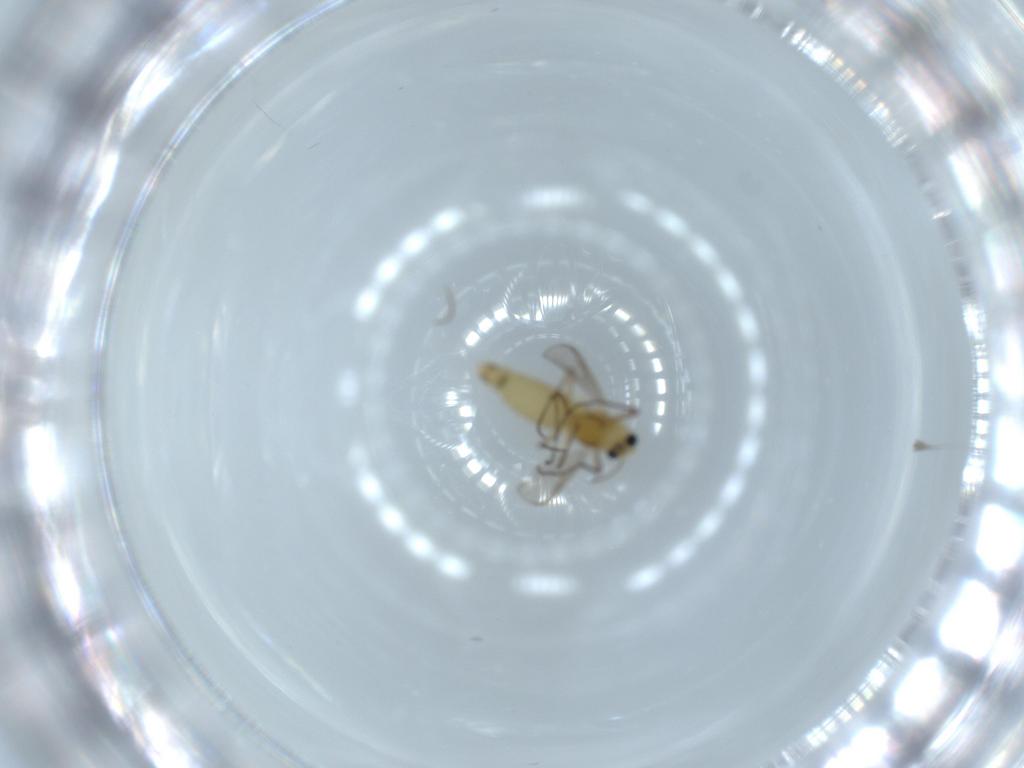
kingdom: Animalia
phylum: Arthropoda
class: Insecta
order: Diptera
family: Chironomidae
